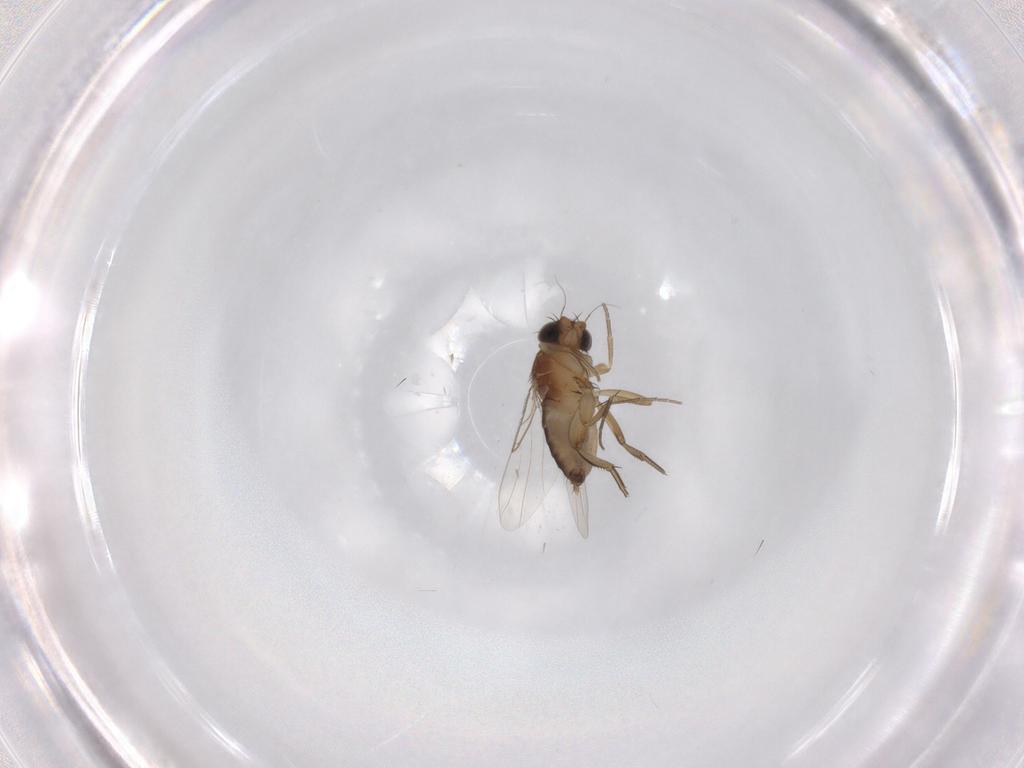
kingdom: Animalia
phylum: Arthropoda
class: Insecta
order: Diptera
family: Phoridae
